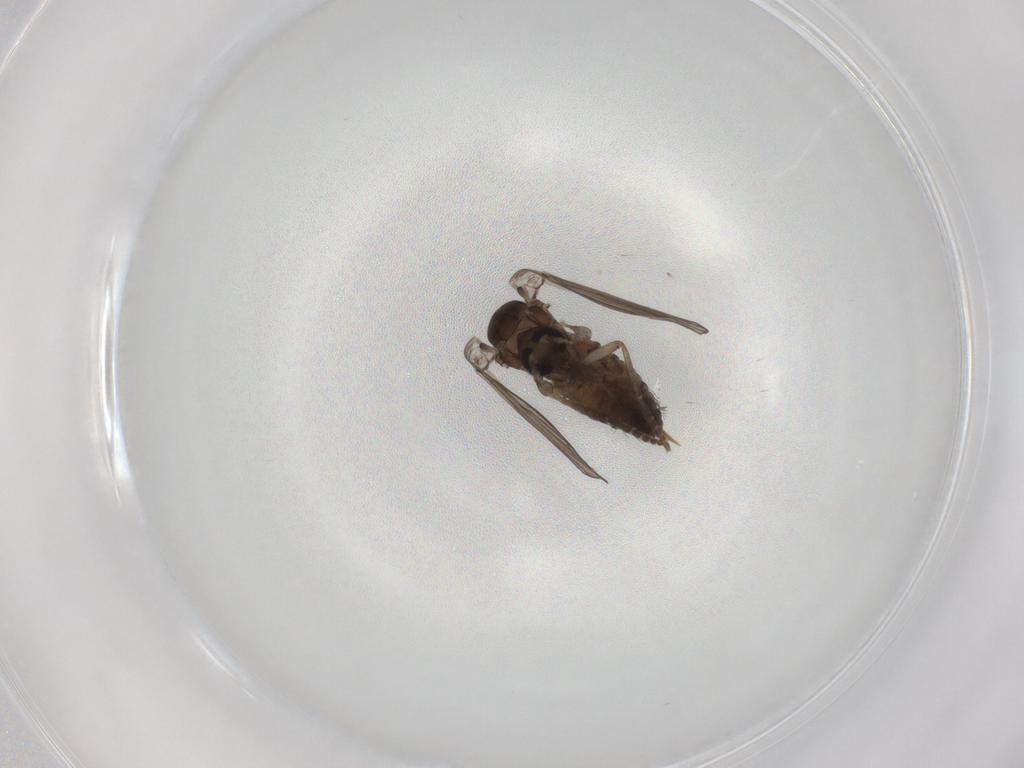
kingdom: Animalia
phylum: Arthropoda
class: Insecta
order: Diptera
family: Psychodidae
